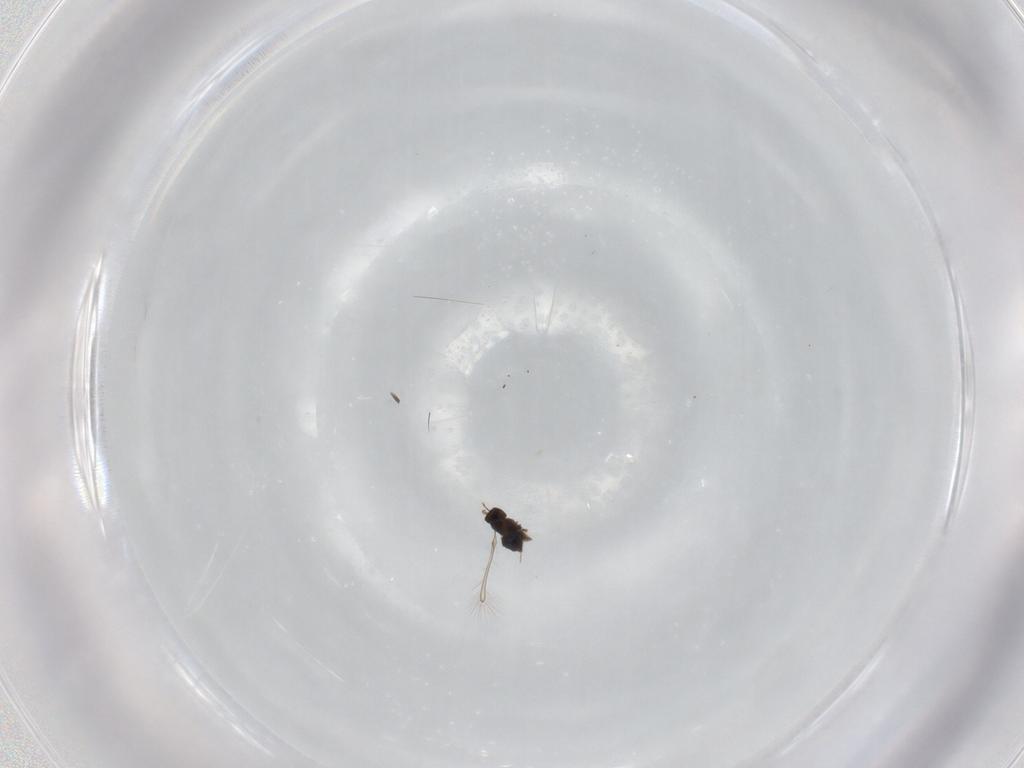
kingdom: Animalia
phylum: Arthropoda
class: Insecta
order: Hymenoptera
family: Mymaridae
